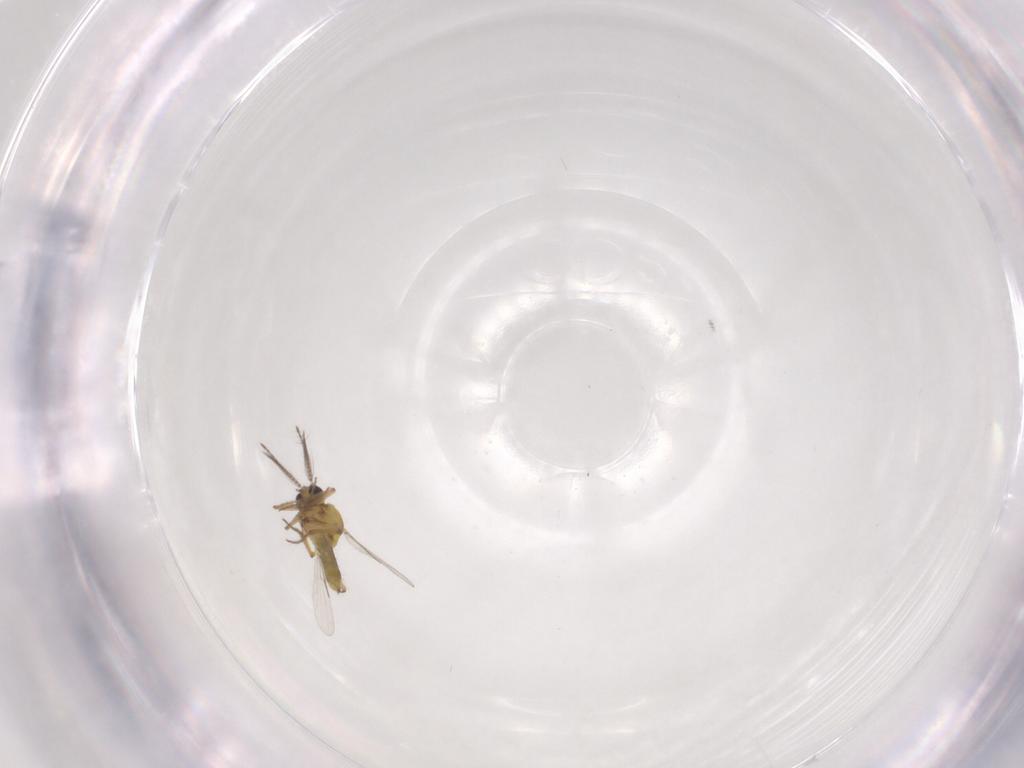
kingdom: Animalia
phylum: Arthropoda
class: Insecta
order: Diptera
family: Ceratopogonidae
